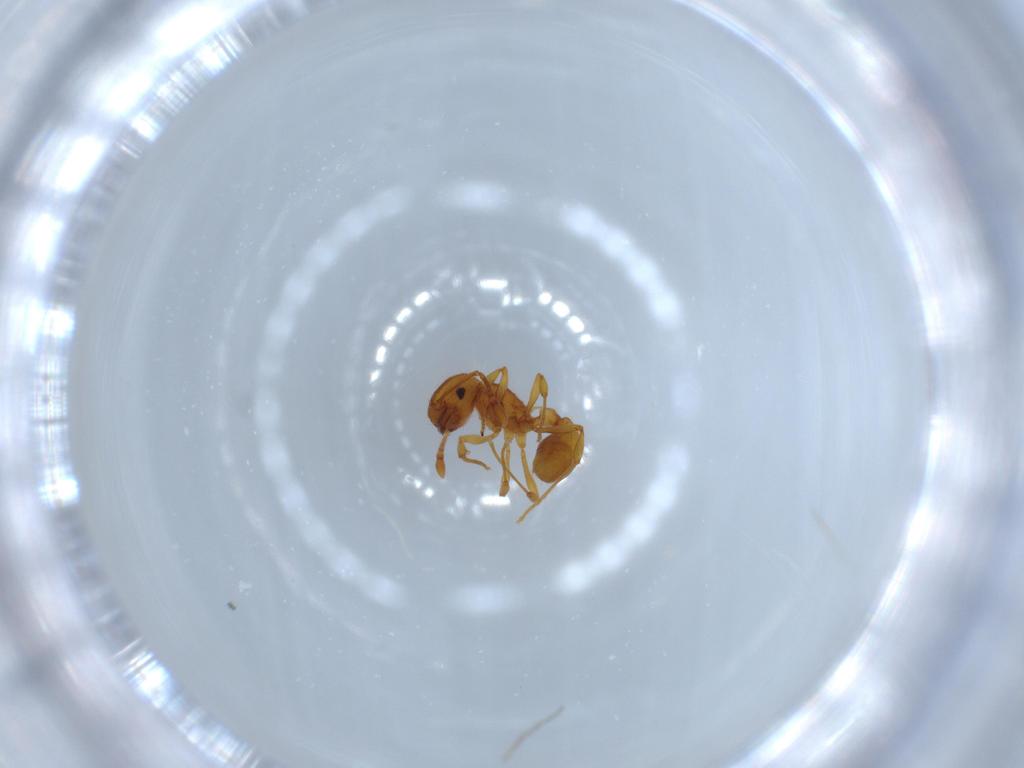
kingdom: Animalia
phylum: Arthropoda
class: Insecta
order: Hymenoptera
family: Formicidae
